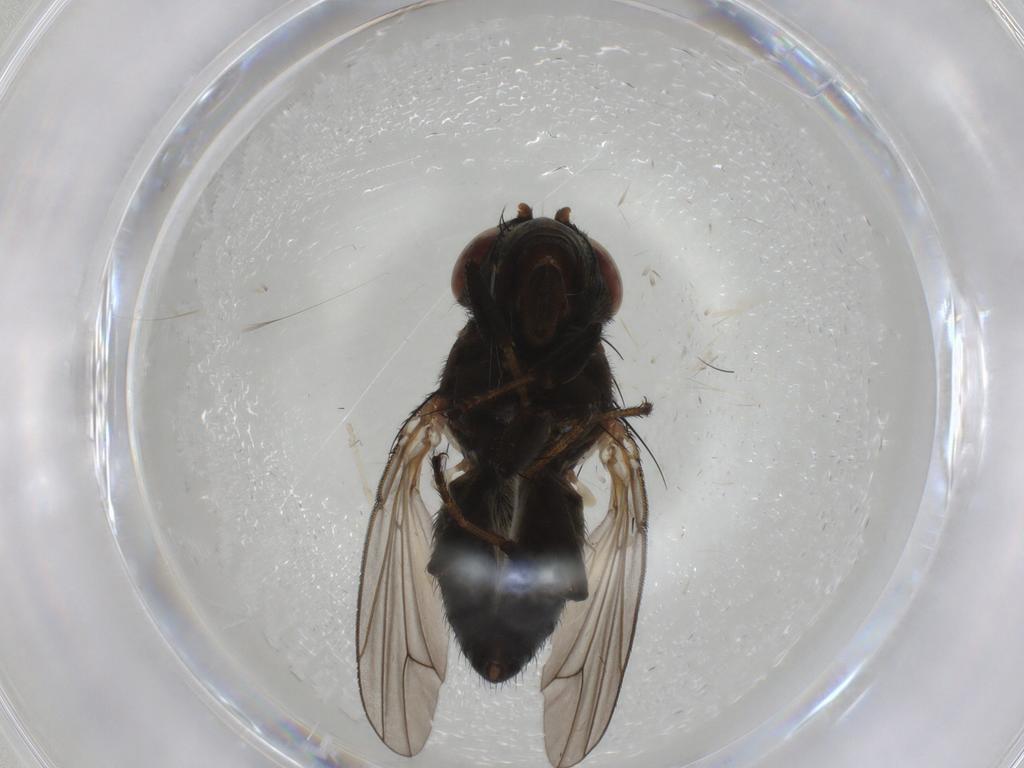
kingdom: Animalia
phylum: Arthropoda
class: Insecta
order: Diptera
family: Ephydridae
